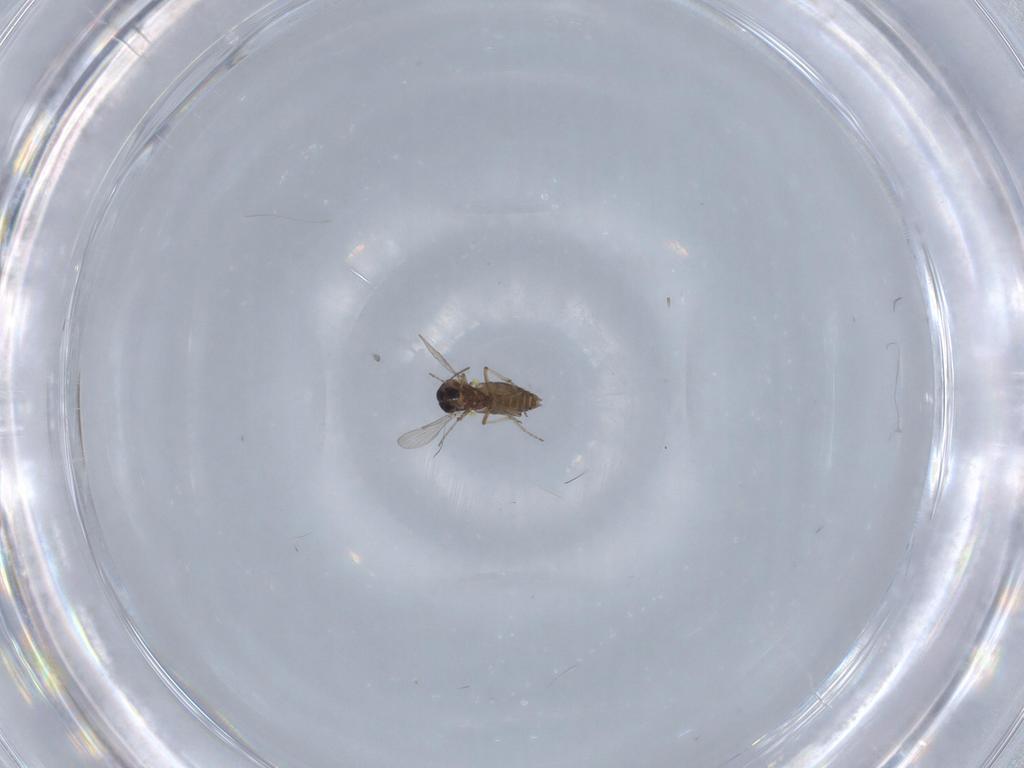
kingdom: Animalia
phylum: Arthropoda
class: Insecta
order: Diptera
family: Ceratopogonidae
